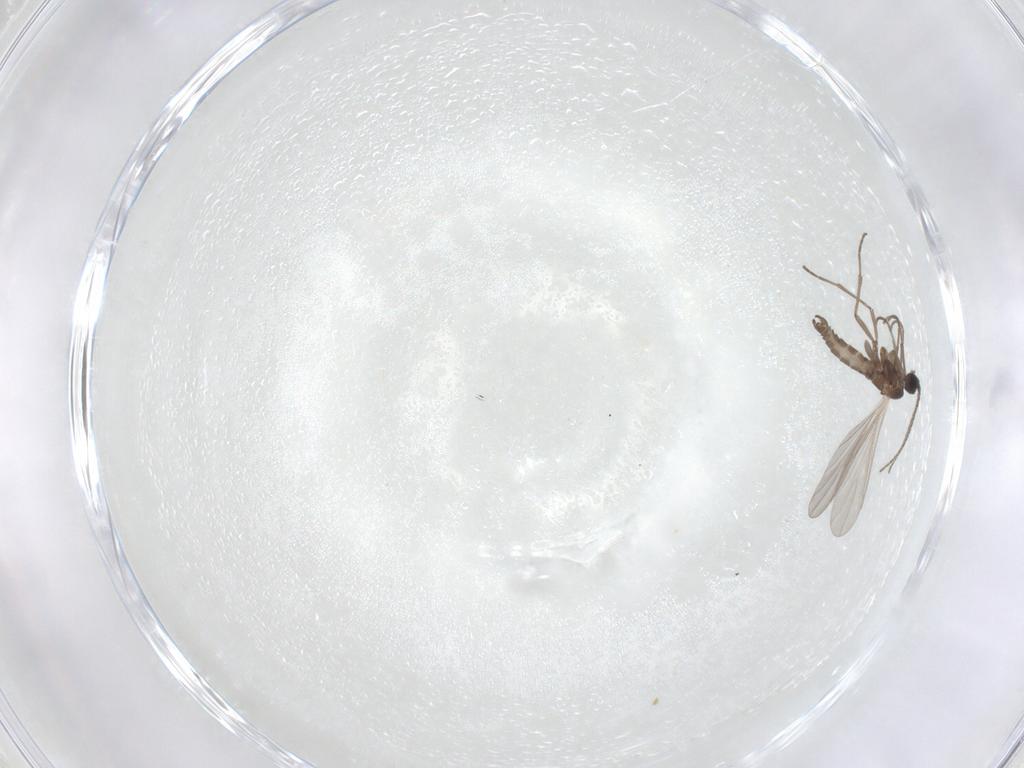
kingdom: Animalia
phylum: Arthropoda
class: Insecta
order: Diptera
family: Sciaridae
